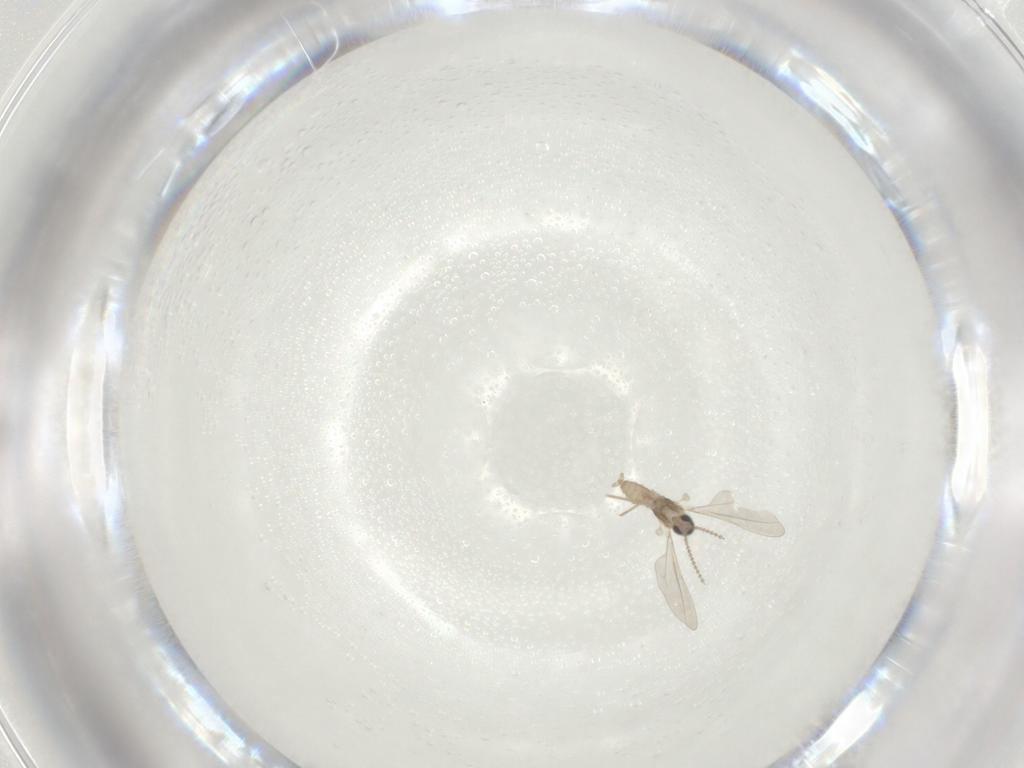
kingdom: Animalia
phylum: Arthropoda
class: Insecta
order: Diptera
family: Cecidomyiidae
